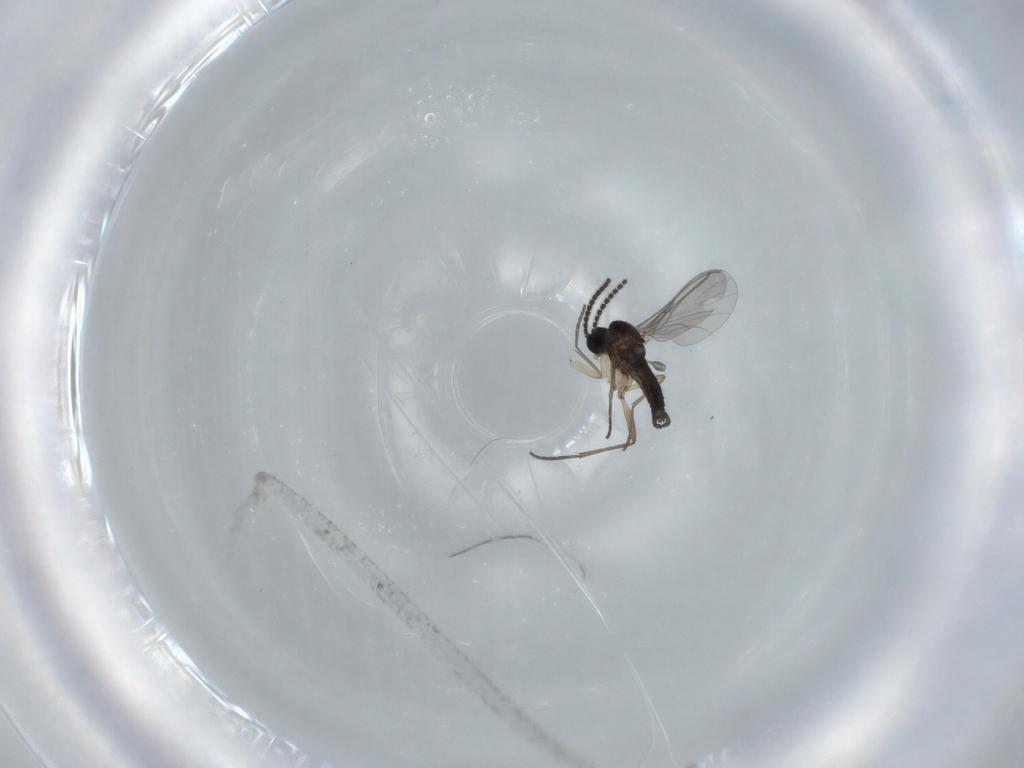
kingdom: Animalia
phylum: Arthropoda
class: Insecta
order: Diptera
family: Sciaridae
